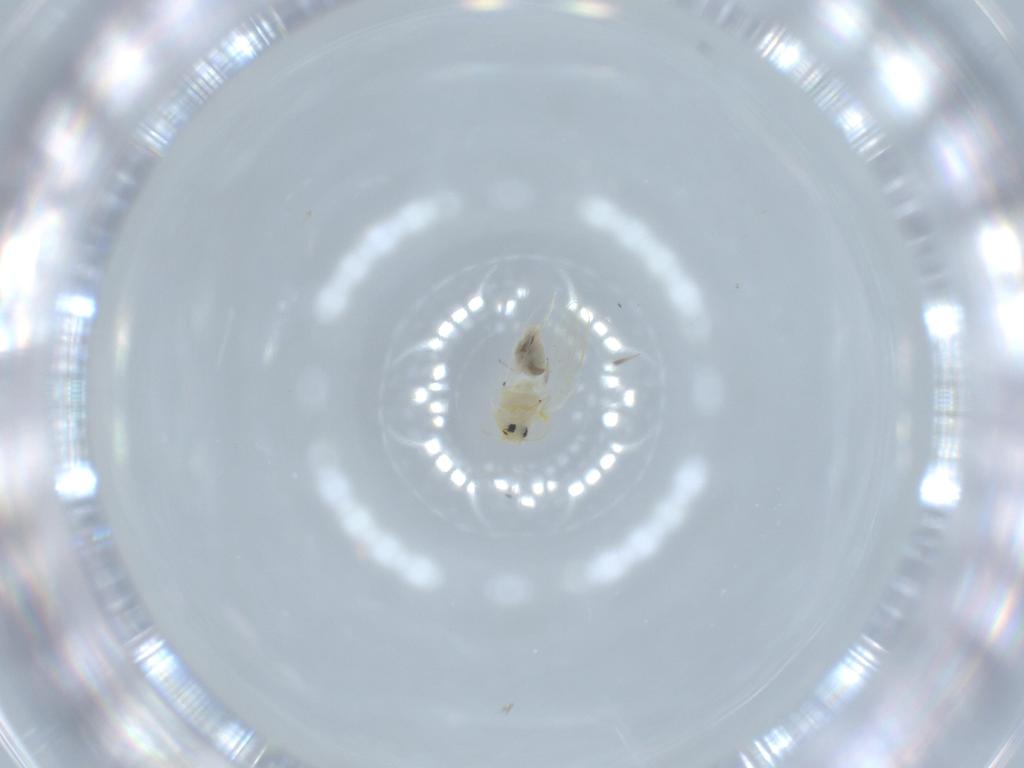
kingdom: Animalia
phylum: Arthropoda
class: Insecta
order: Hemiptera
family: Aleyrodidae
